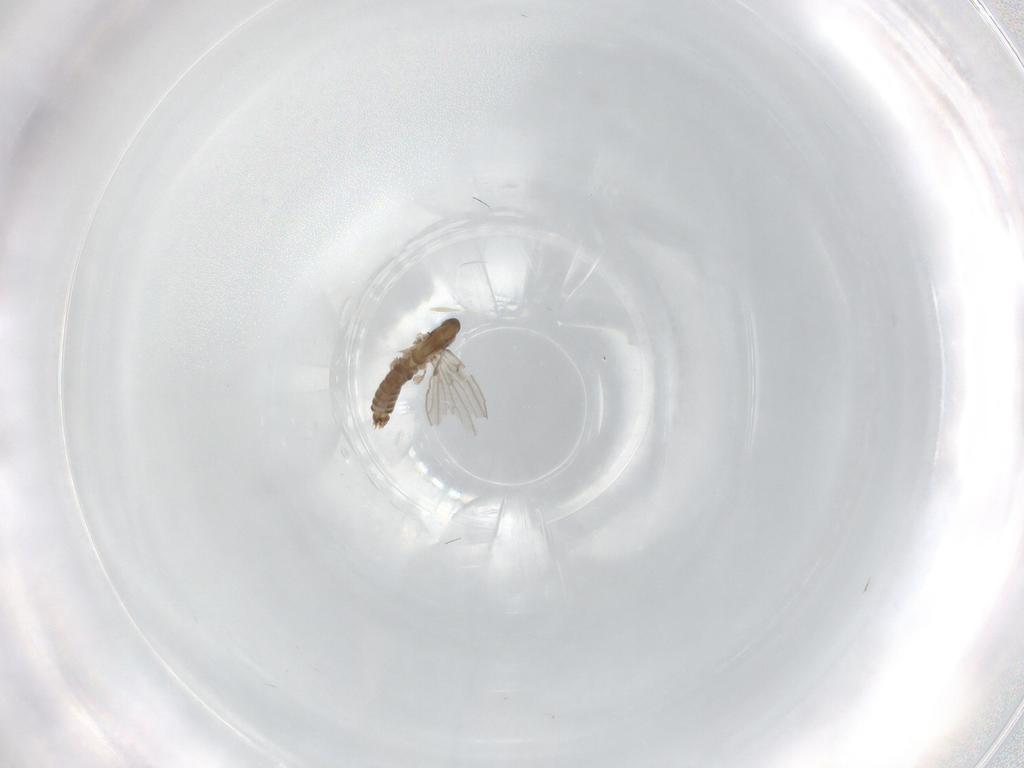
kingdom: Animalia
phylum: Arthropoda
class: Insecta
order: Diptera
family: Psychodidae
